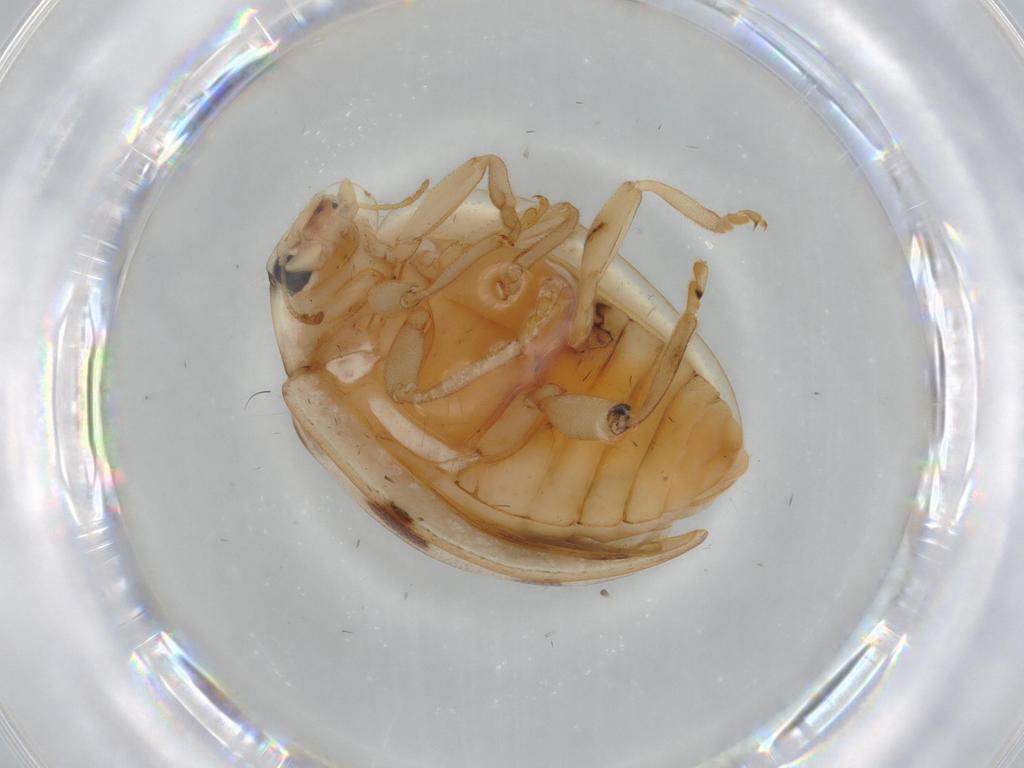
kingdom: Animalia
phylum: Arthropoda
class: Insecta
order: Coleoptera
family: Coccinellidae
